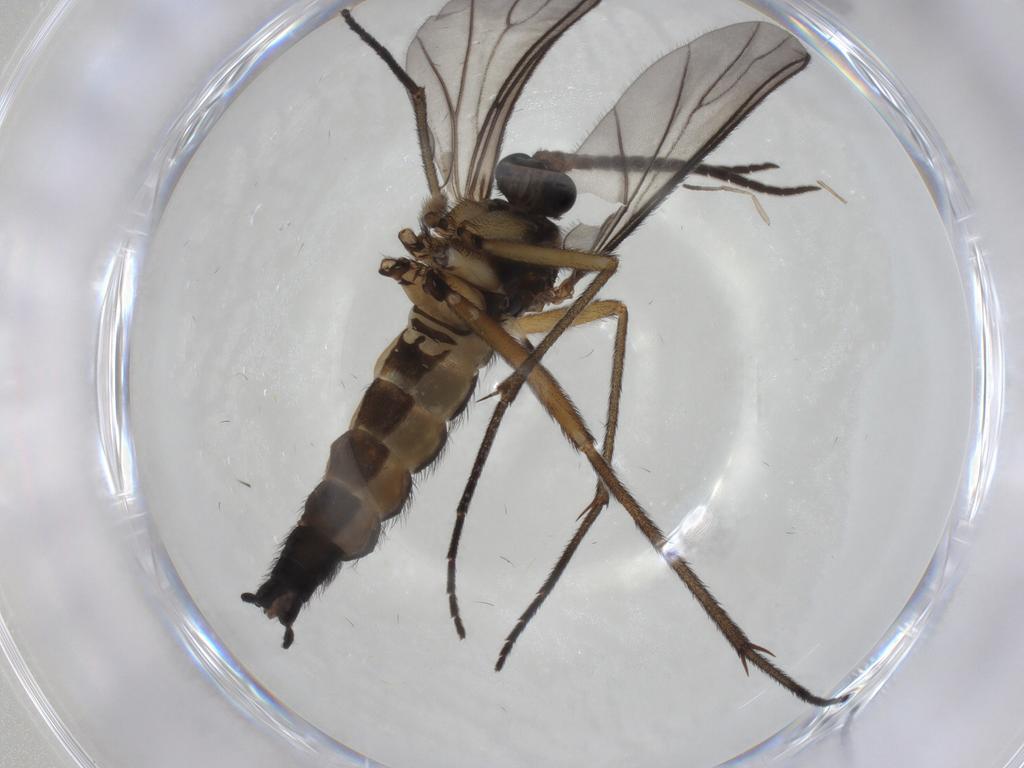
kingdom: Animalia
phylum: Arthropoda
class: Insecta
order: Diptera
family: Sciaridae
